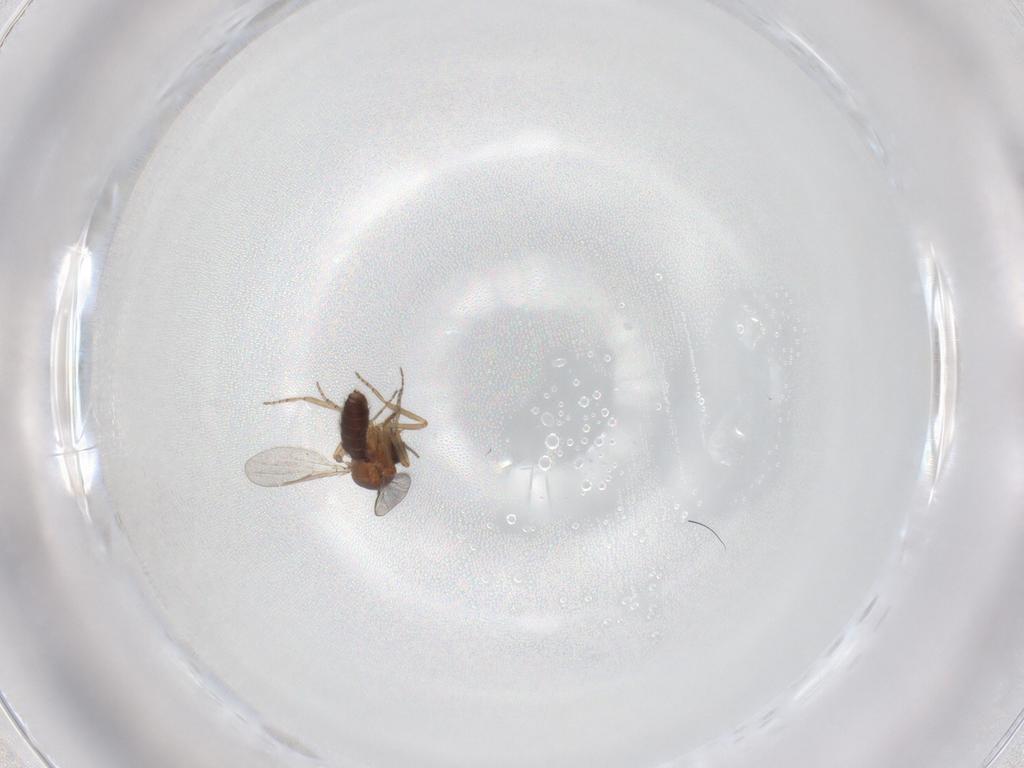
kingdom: Animalia
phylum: Arthropoda
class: Insecta
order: Diptera
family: Ceratopogonidae
